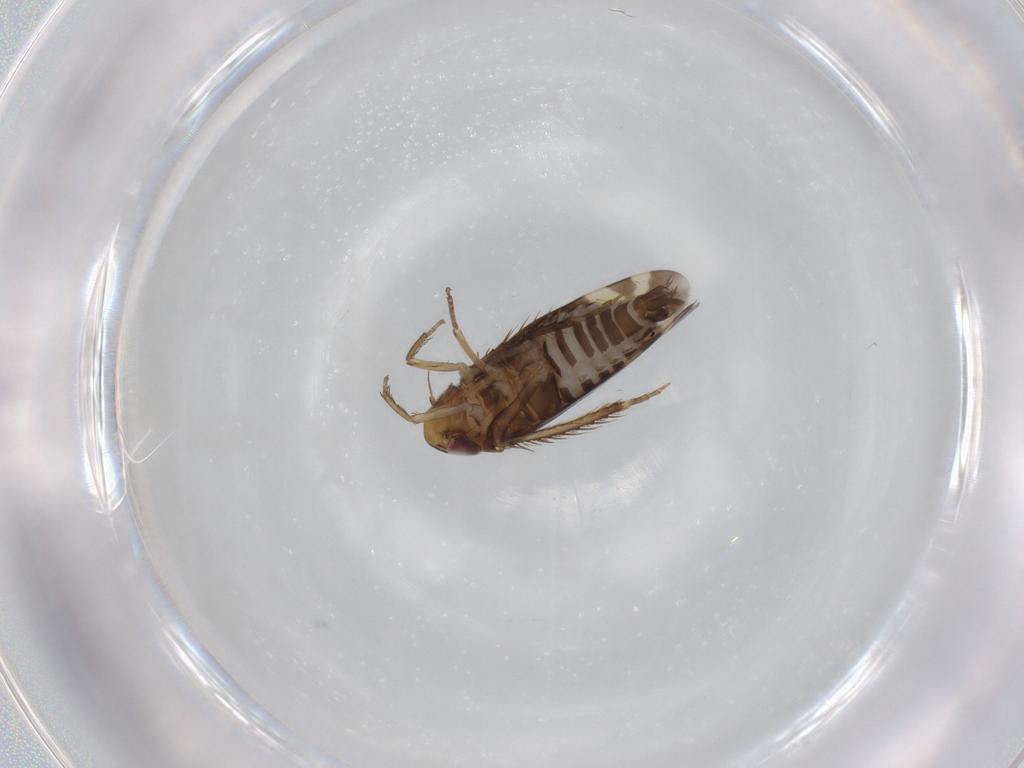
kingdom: Animalia
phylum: Arthropoda
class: Insecta
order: Hemiptera
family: Cicadellidae
